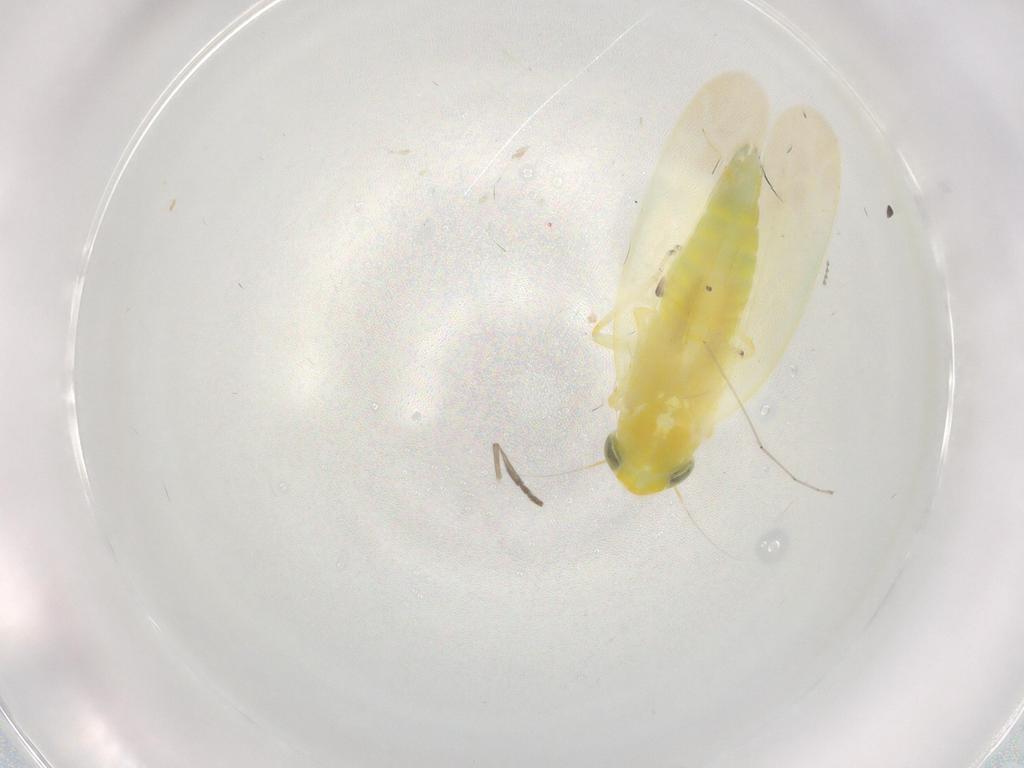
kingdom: Animalia
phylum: Arthropoda
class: Insecta
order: Hemiptera
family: Cicadellidae
